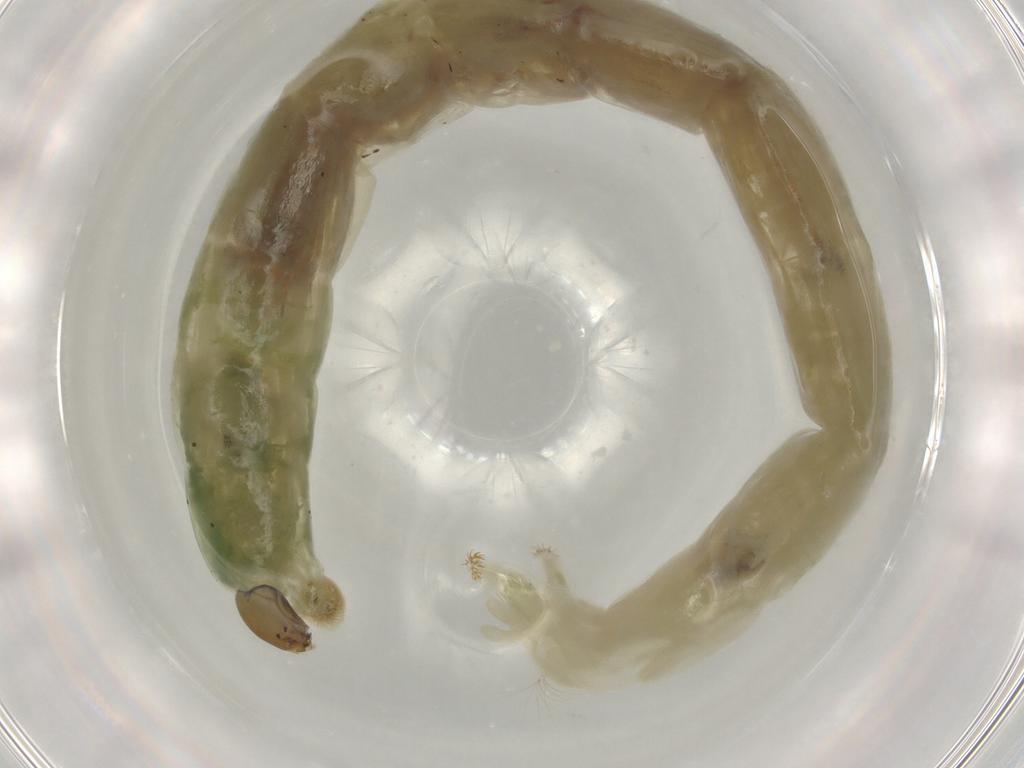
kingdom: Animalia
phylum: Arthropoda
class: Insecta
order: Diptera
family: Chironomidae
